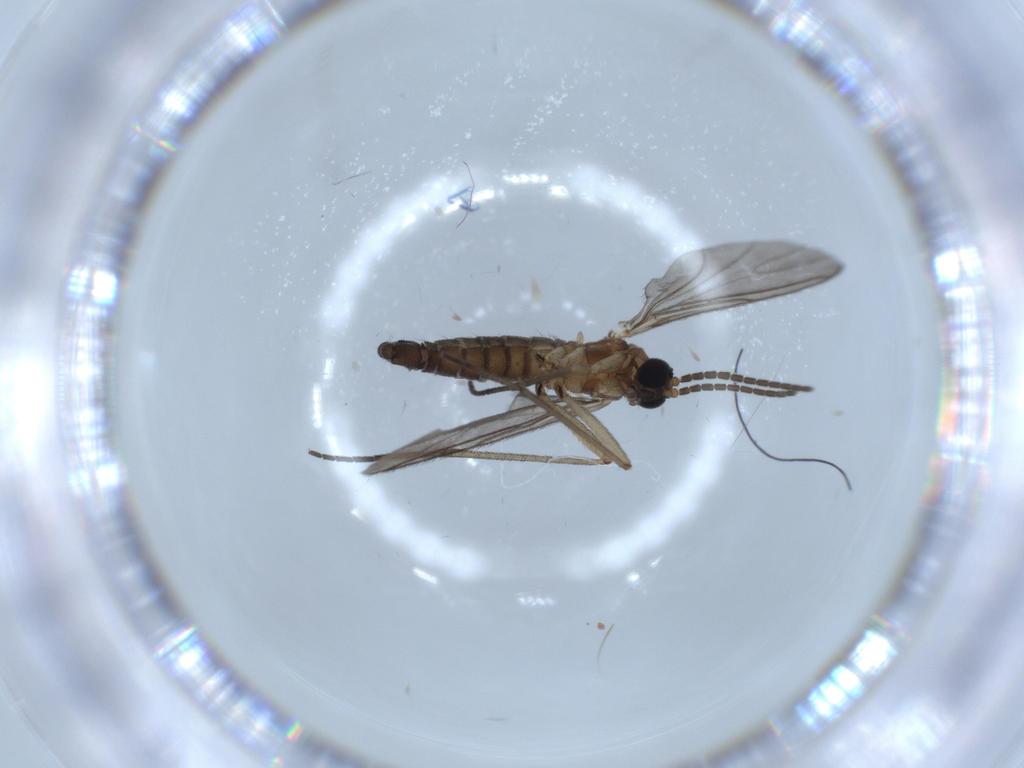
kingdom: Animalia
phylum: Arthropoda
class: Insecta
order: Diptera
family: Sciaridae
